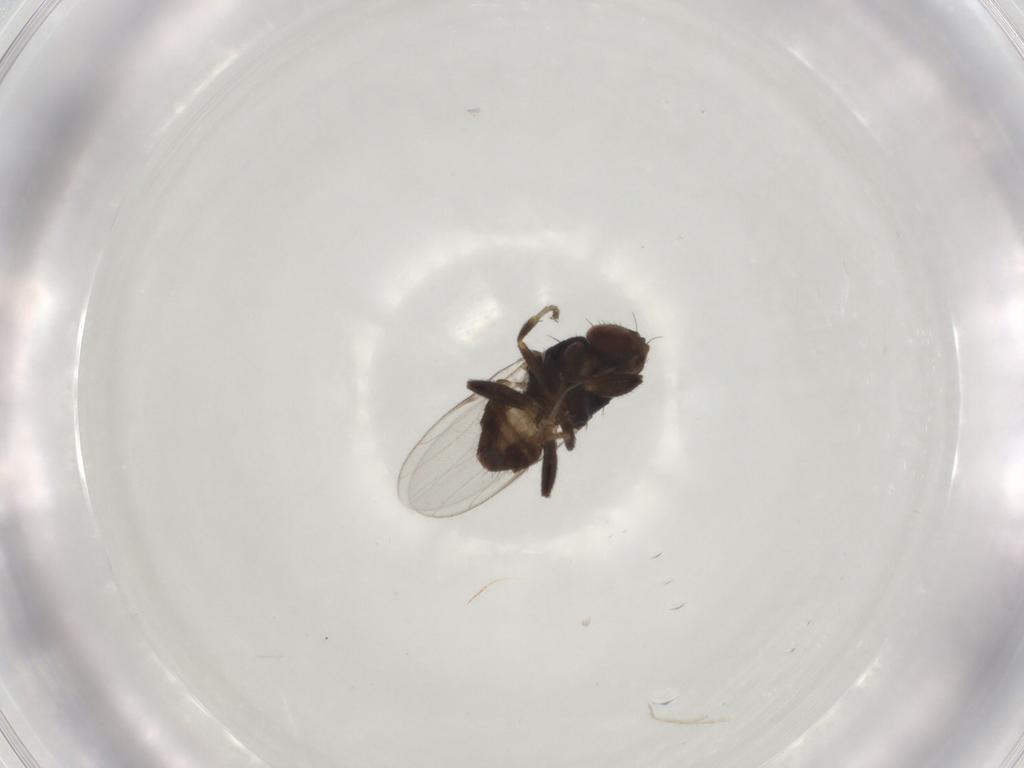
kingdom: Animalia
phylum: Arthropoda
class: Insecta
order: Diptera
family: Chloropidae
